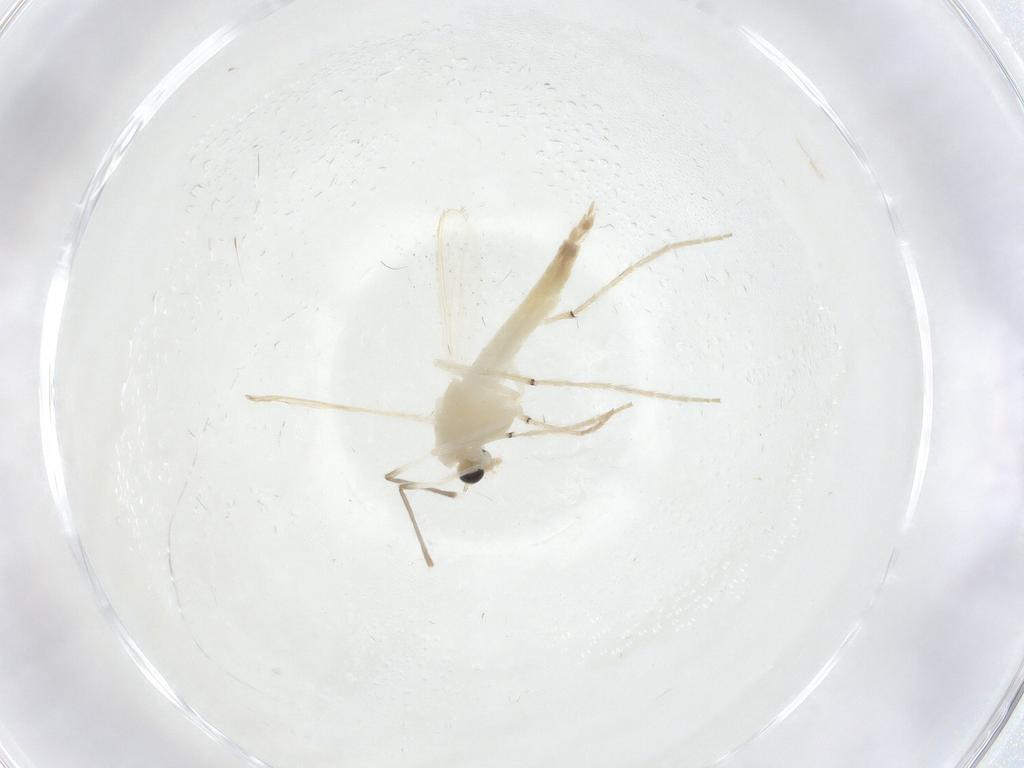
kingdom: Animalia
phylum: Arthropoda
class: Insecta
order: Diptera
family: Chironomidae
